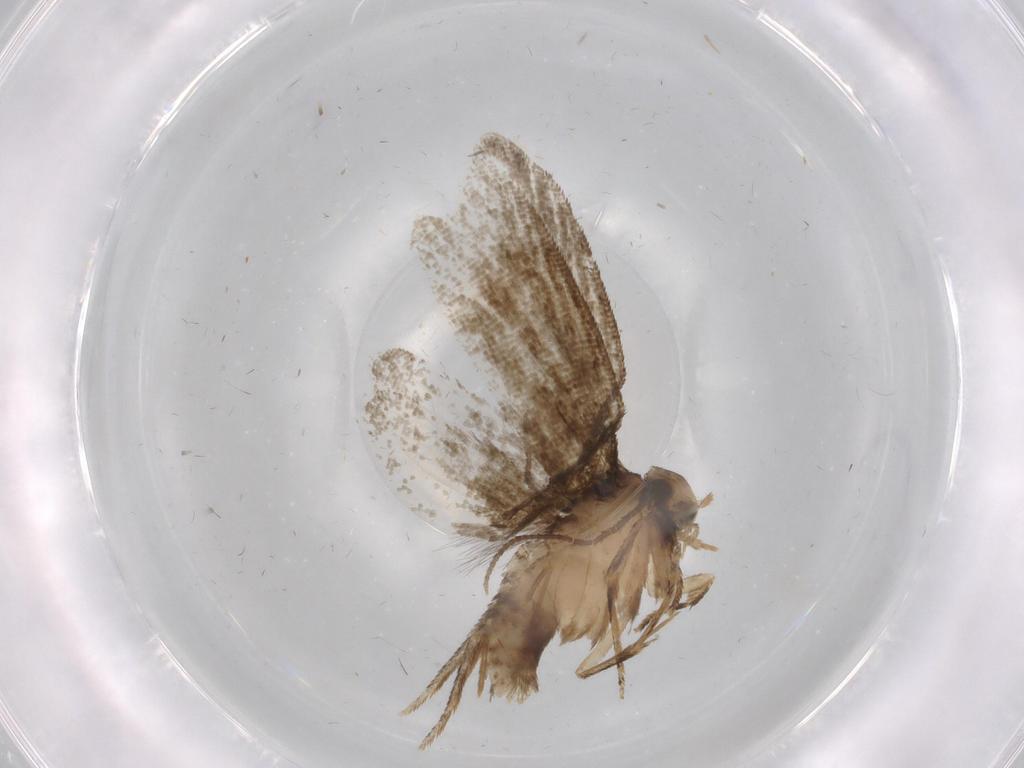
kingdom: Animalia
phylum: Arthropoda
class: Insecta
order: Lepidoptera
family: Tineidae
